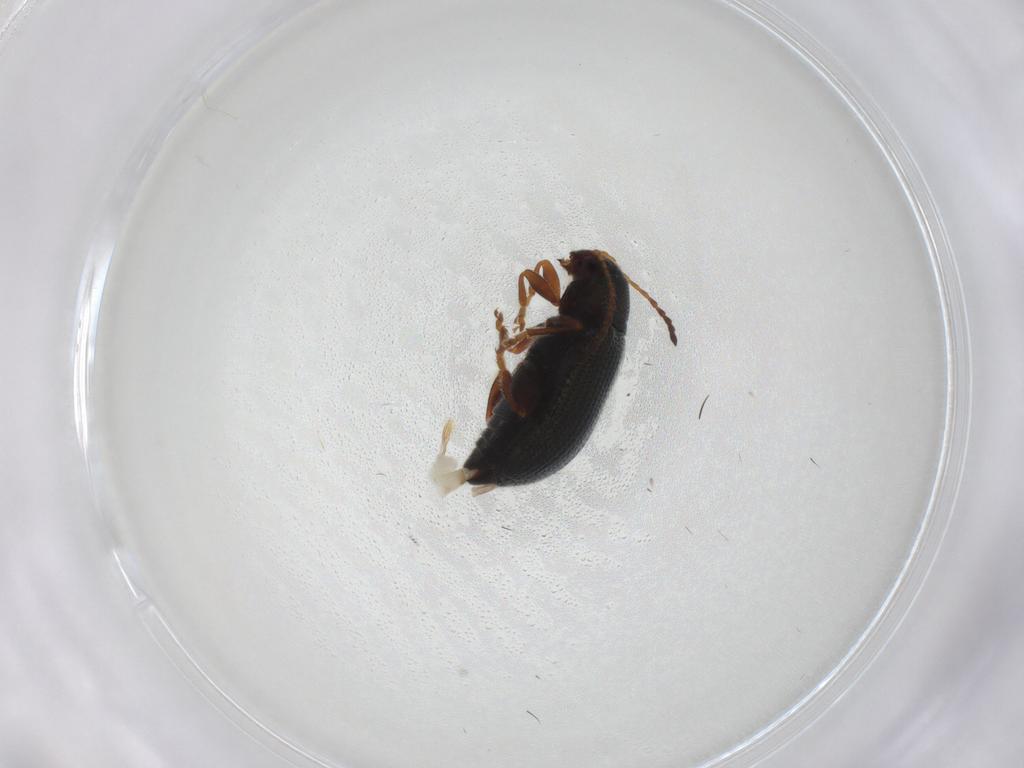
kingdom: Animalia
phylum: Arthropoda
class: Insecta
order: Coleoptera
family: Chrysomelidae
